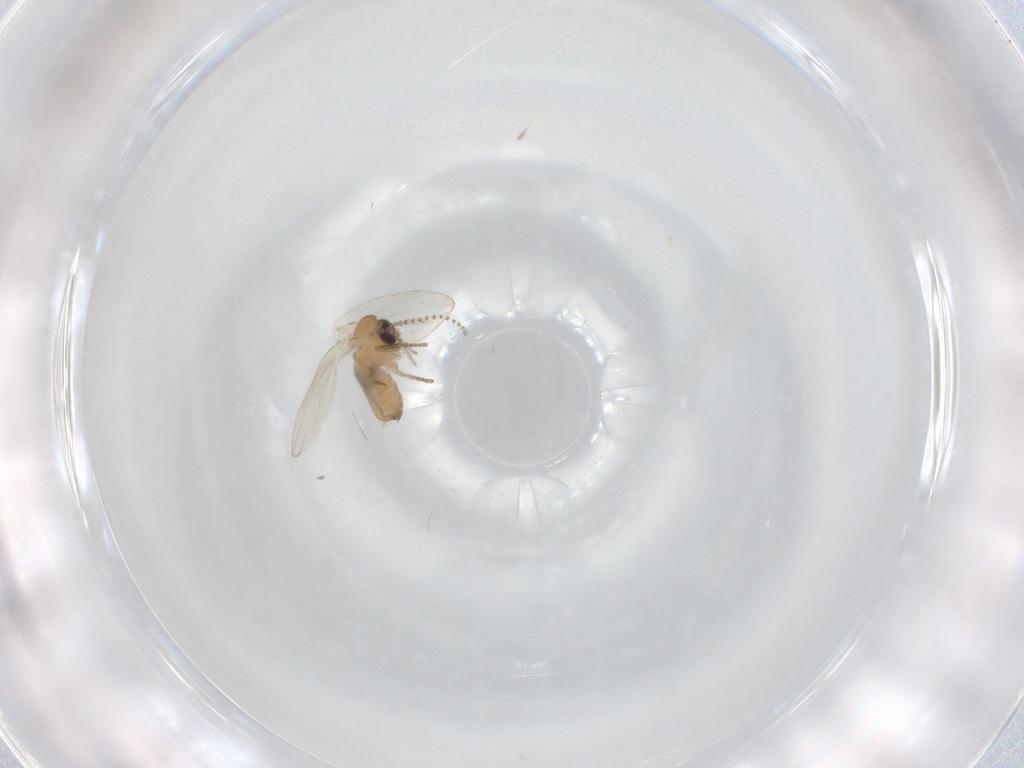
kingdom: Animalia
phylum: Arthropoda
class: Insecta
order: Diptera
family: Psychodidae
